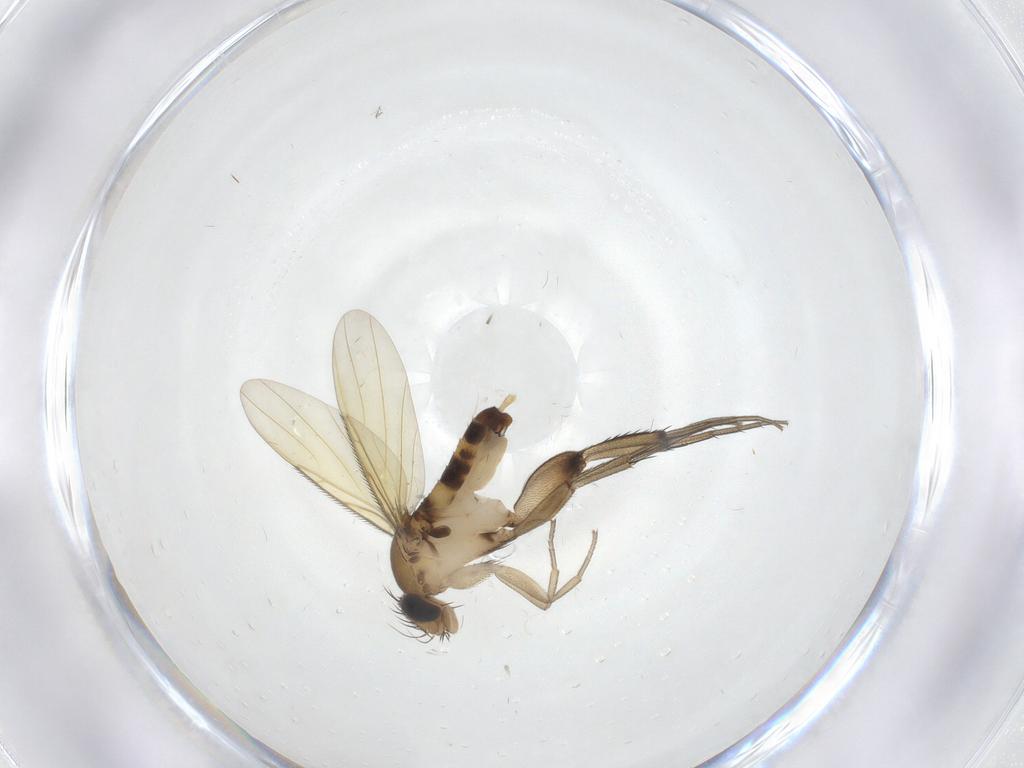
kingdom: Animalia
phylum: Arthropoda
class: Insecta
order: Diptera
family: Phoridae
